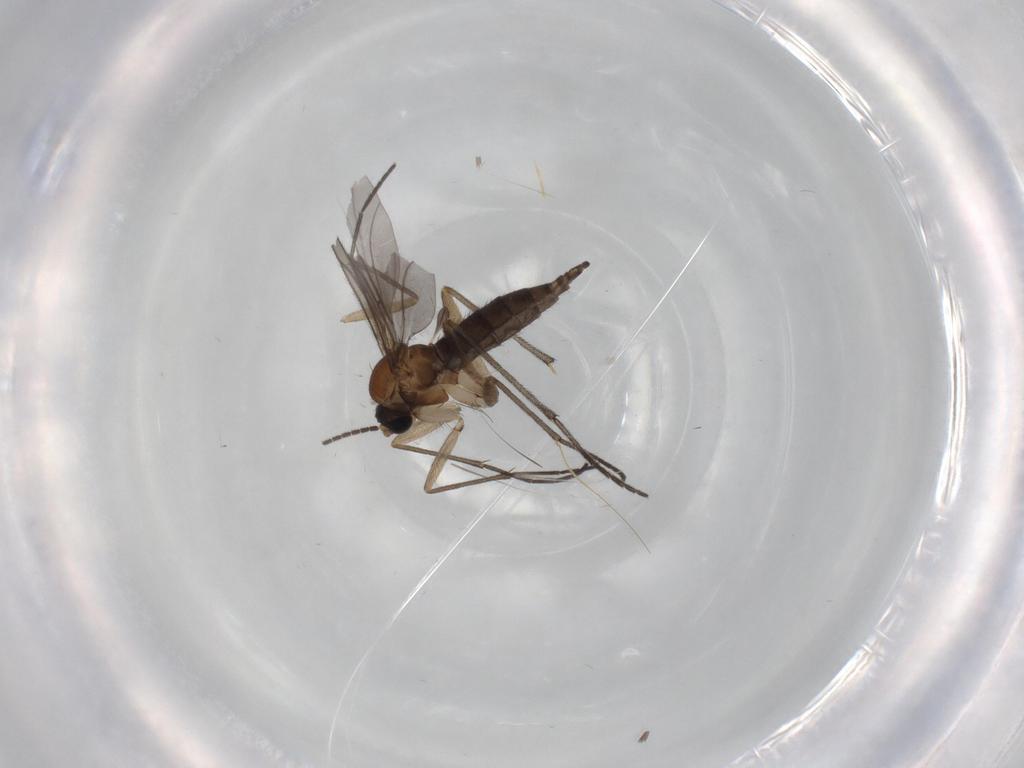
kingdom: Animalia
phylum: Arthropoda
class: Insecta
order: Diptera
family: Sciaridae
